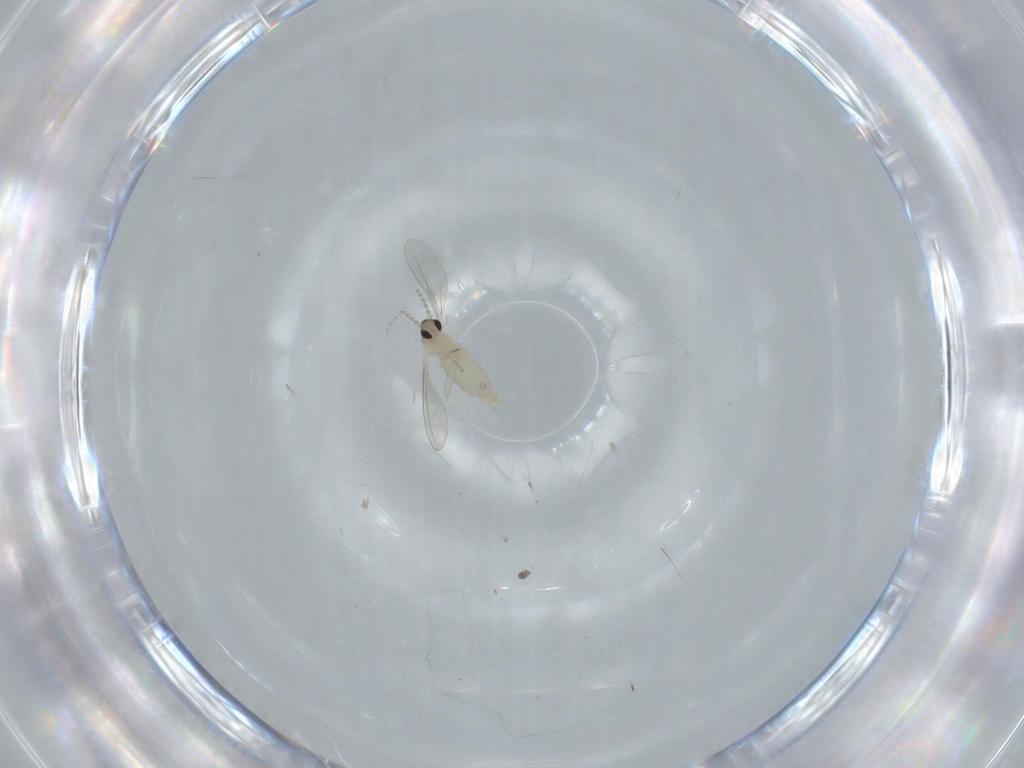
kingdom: Animalia
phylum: Arthropoda
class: Insecta
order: Diptera
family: Cecidomyiidae
